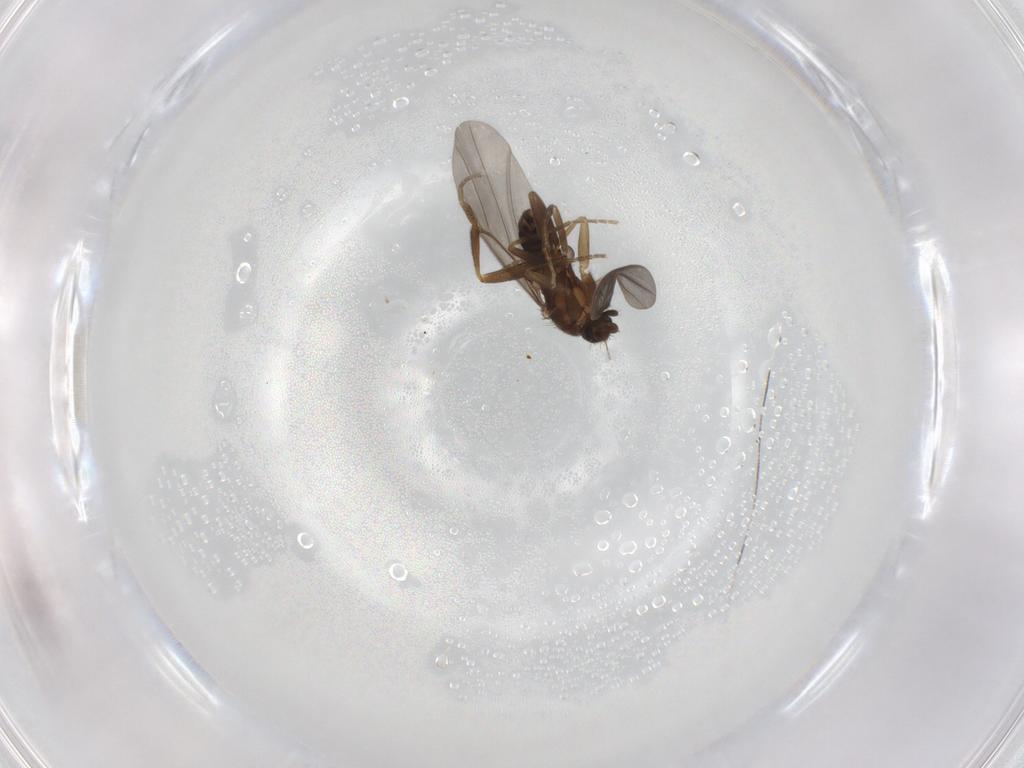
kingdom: Animalia
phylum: Arthropoda
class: Insecta
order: Diptera
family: Phoridae
